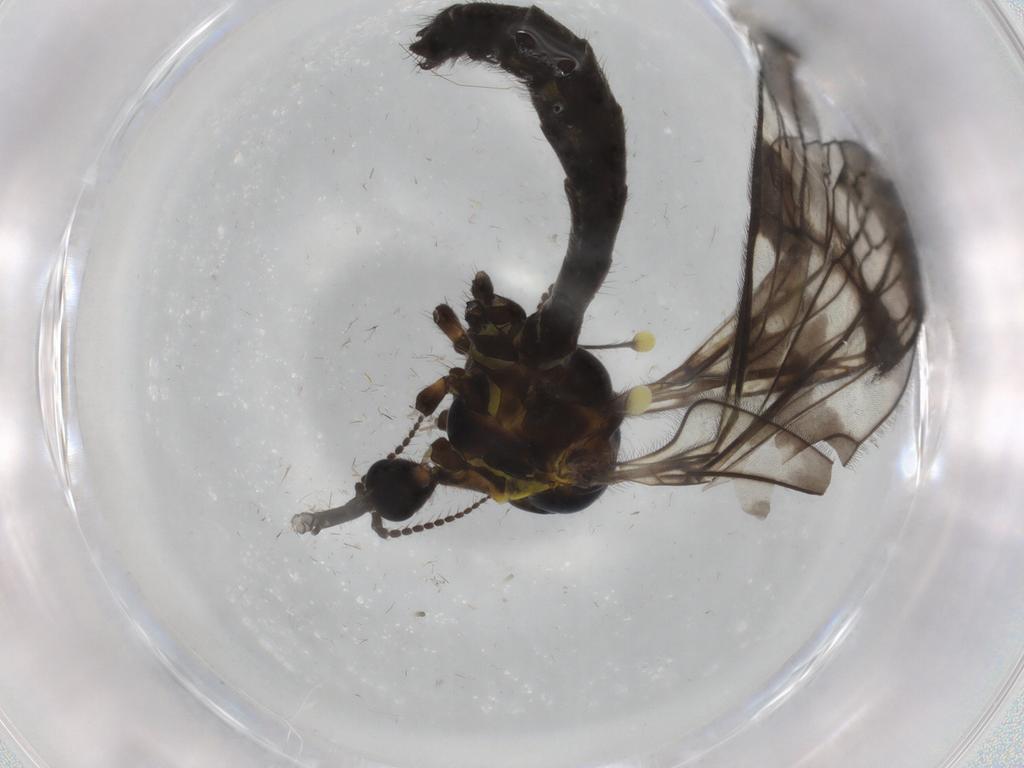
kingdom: Animalia
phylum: Arthropoda
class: Insecta
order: Diptera
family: Limoniidae
